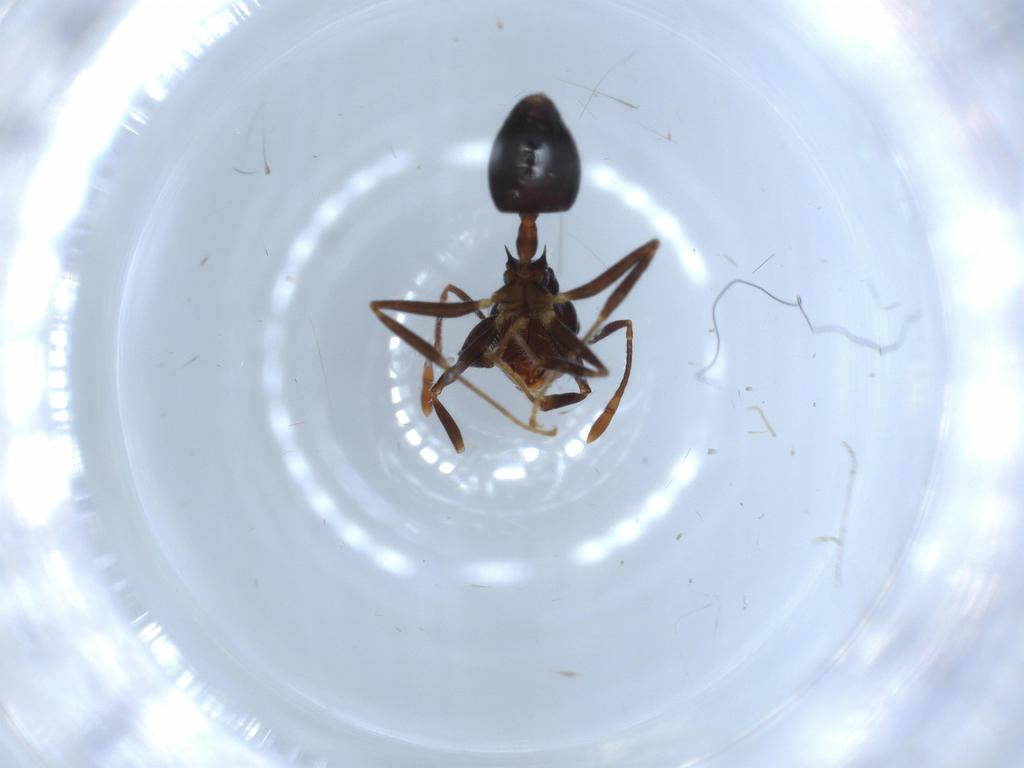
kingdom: Animalia
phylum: Arthropoda
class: Insecta
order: Hymenoptera
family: Formicidae
